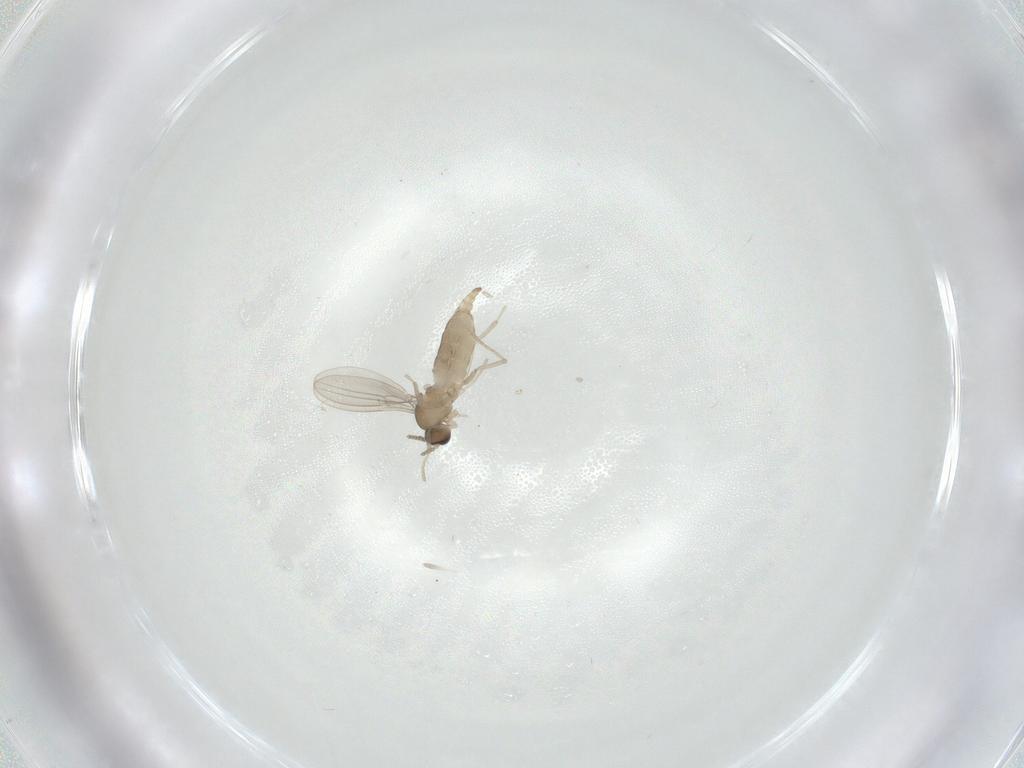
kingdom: Animalia
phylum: Arthropoda
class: Insecta
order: Diptera
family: Cecidomyiidae
